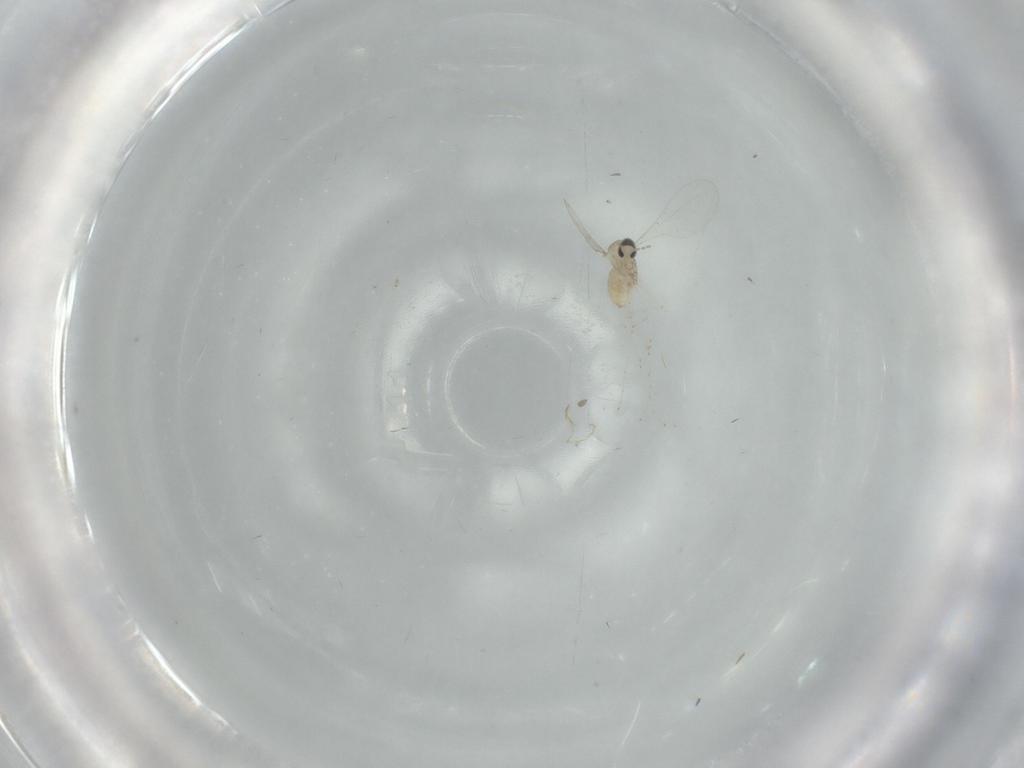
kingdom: Animalia
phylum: Arthropoda
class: Insecta
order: Diptera
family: Cecidomyiidae
